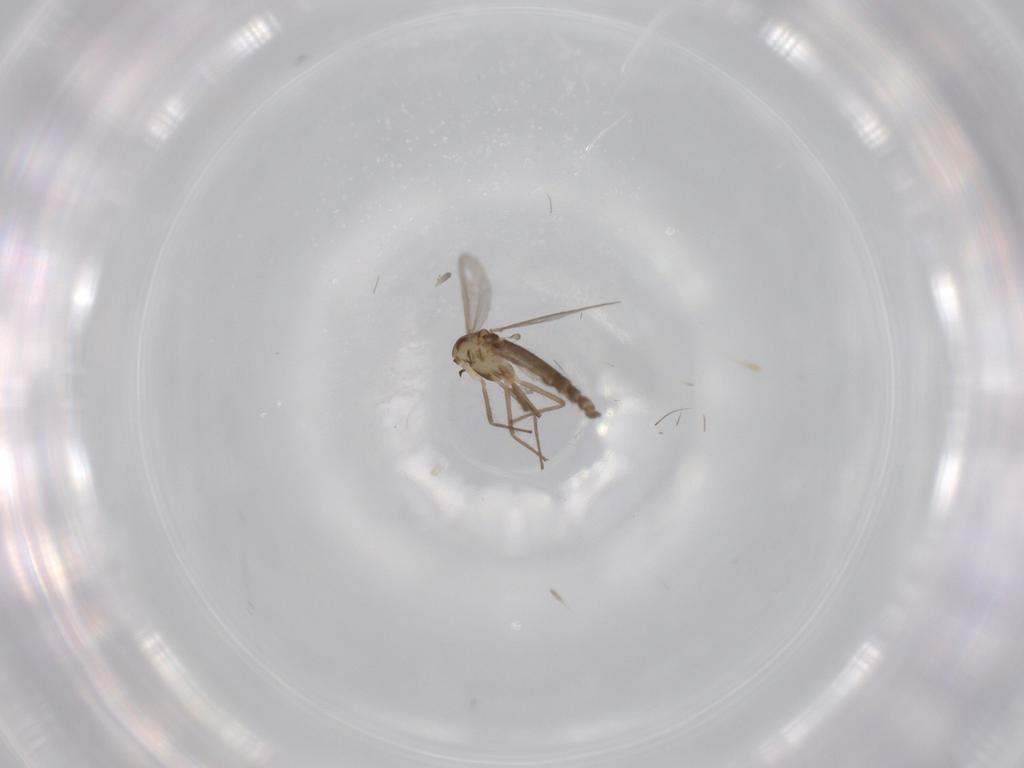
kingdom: Animalia
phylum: Arthropoda
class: Insecta
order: Diptera
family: Chironomidae
